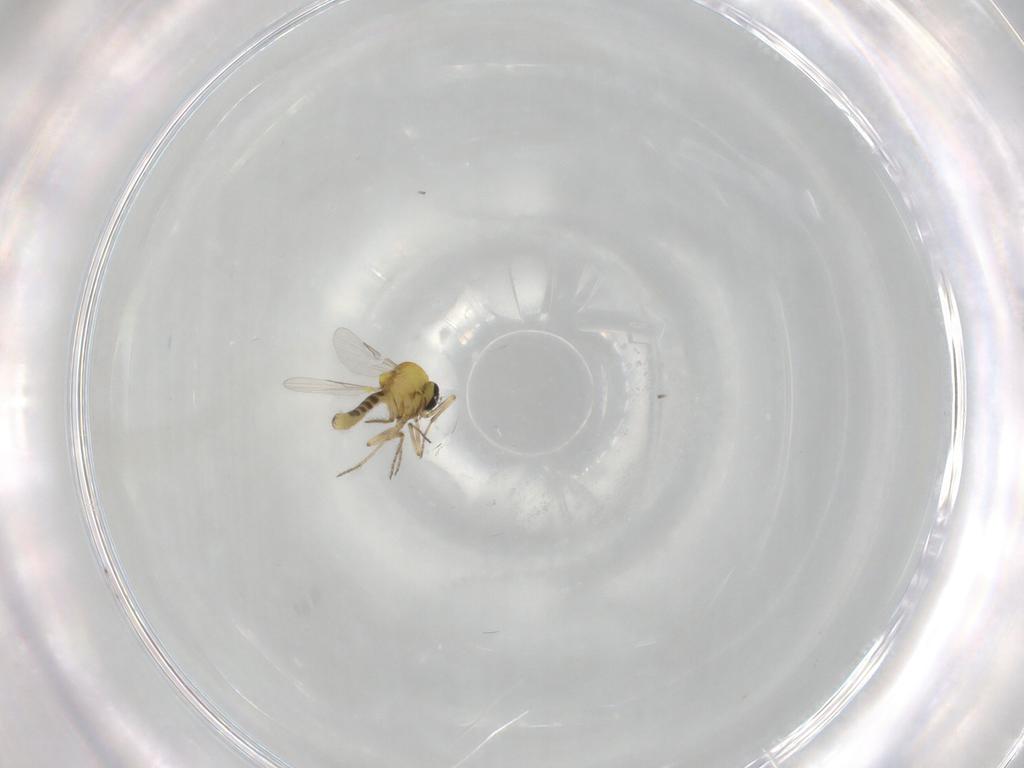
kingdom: Animalia
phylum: Arthropoda
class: Insecta
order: Diptera
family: Cecidomyiidae
